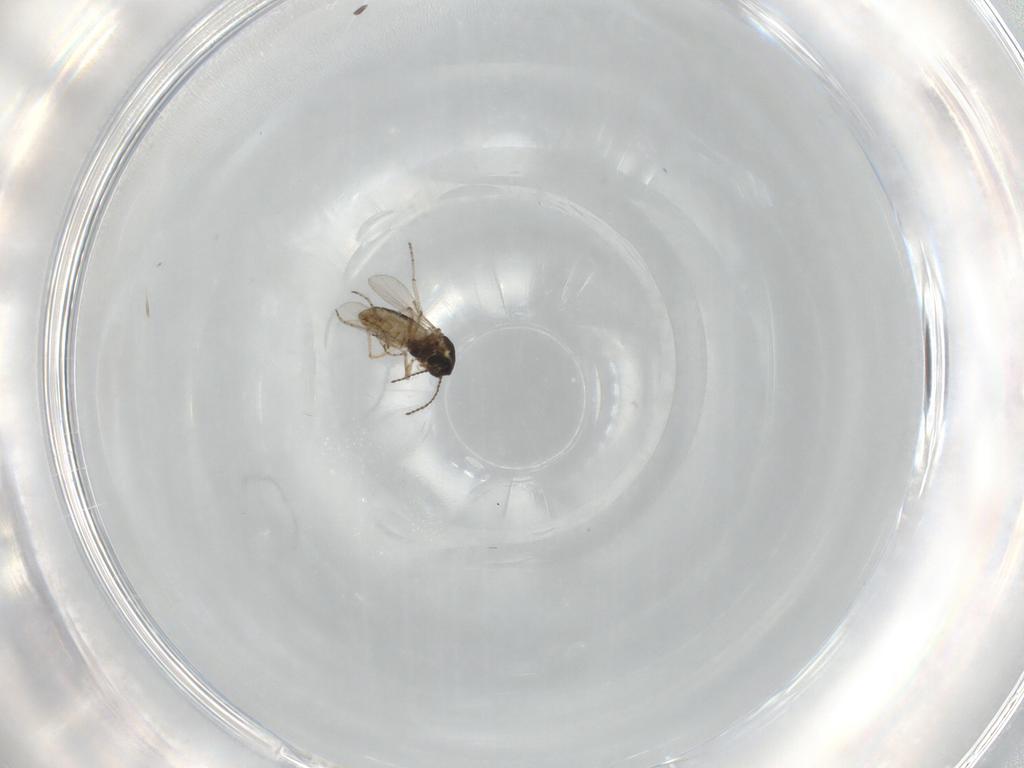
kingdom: Animalia
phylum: Arthropoda
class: Insecta
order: Diptera
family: Ceratopogonidae
